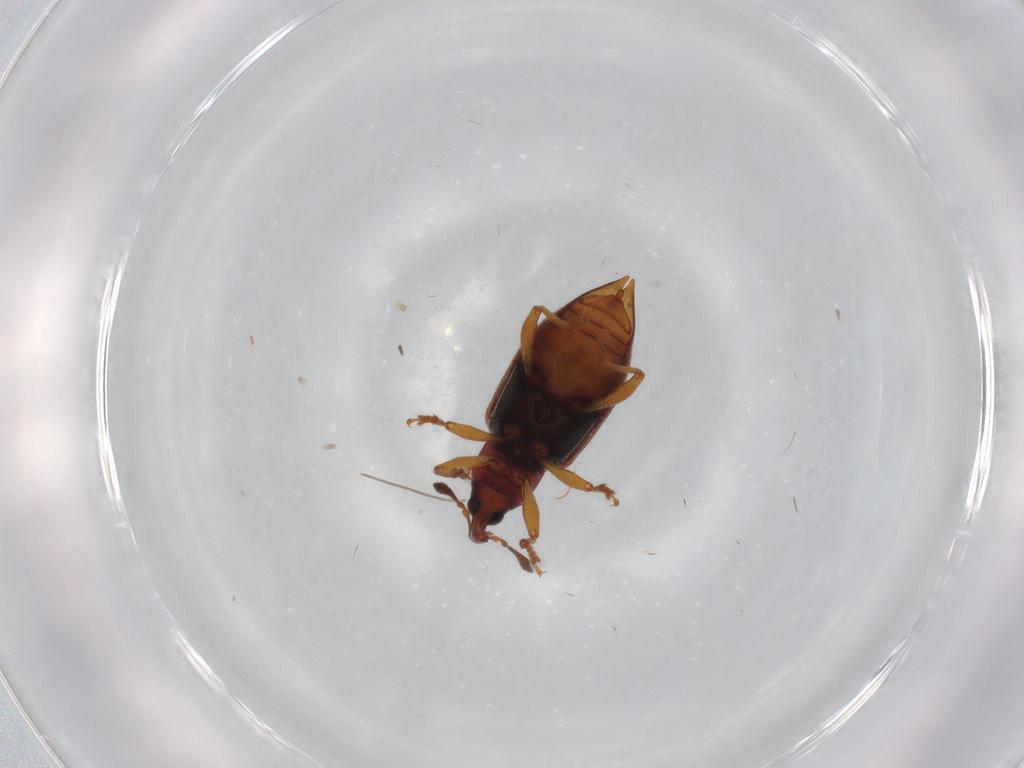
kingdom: Animalia
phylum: Arthropoda
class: Insecta
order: Coleoptera
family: Curculionidae
